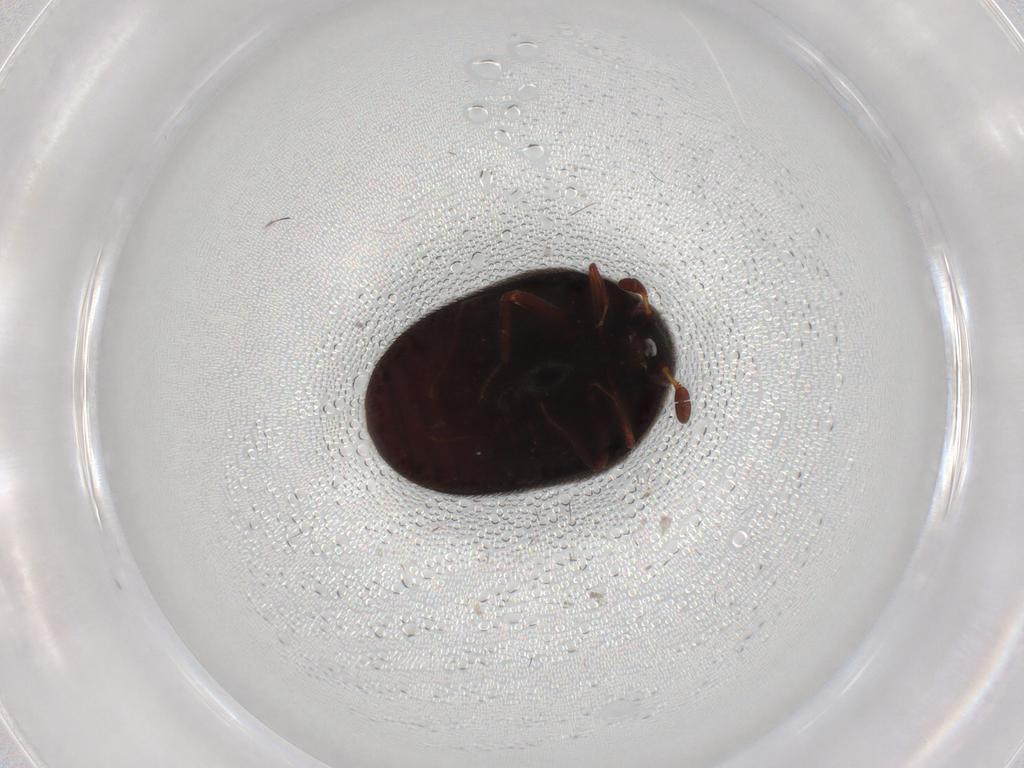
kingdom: Animalia
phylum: Arthropoda
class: Insecta
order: Coleoptera
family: Dermestidae
